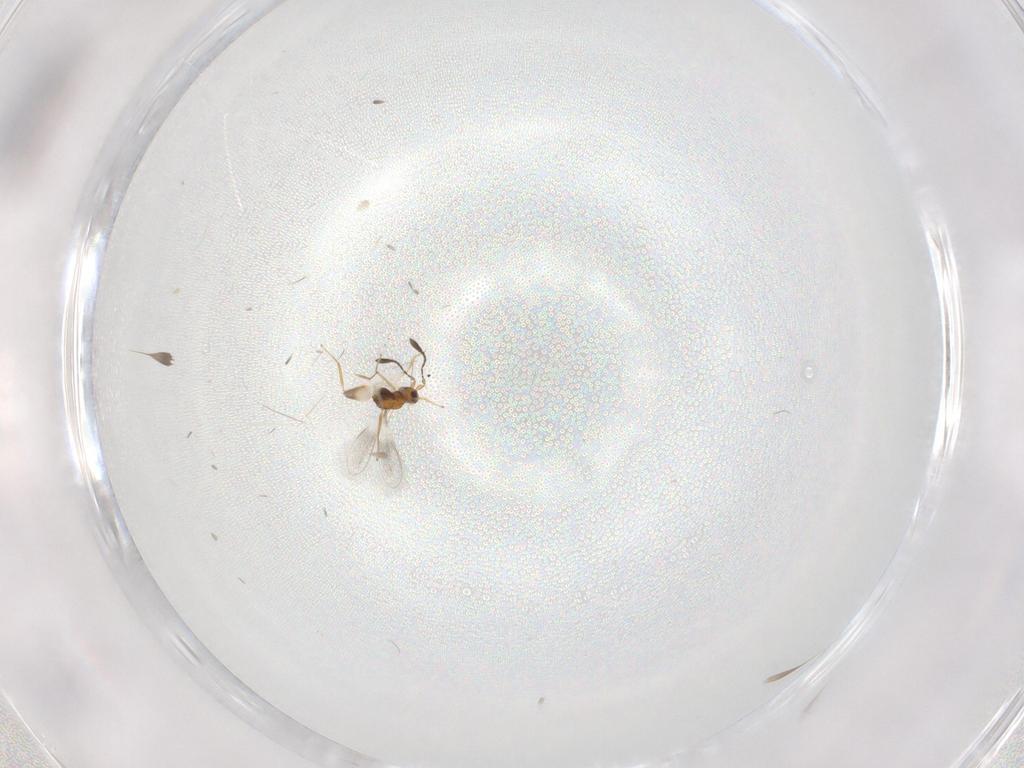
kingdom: Animalia
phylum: Arthropoda
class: Insecta
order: Hymenoptera
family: Mymaridae
